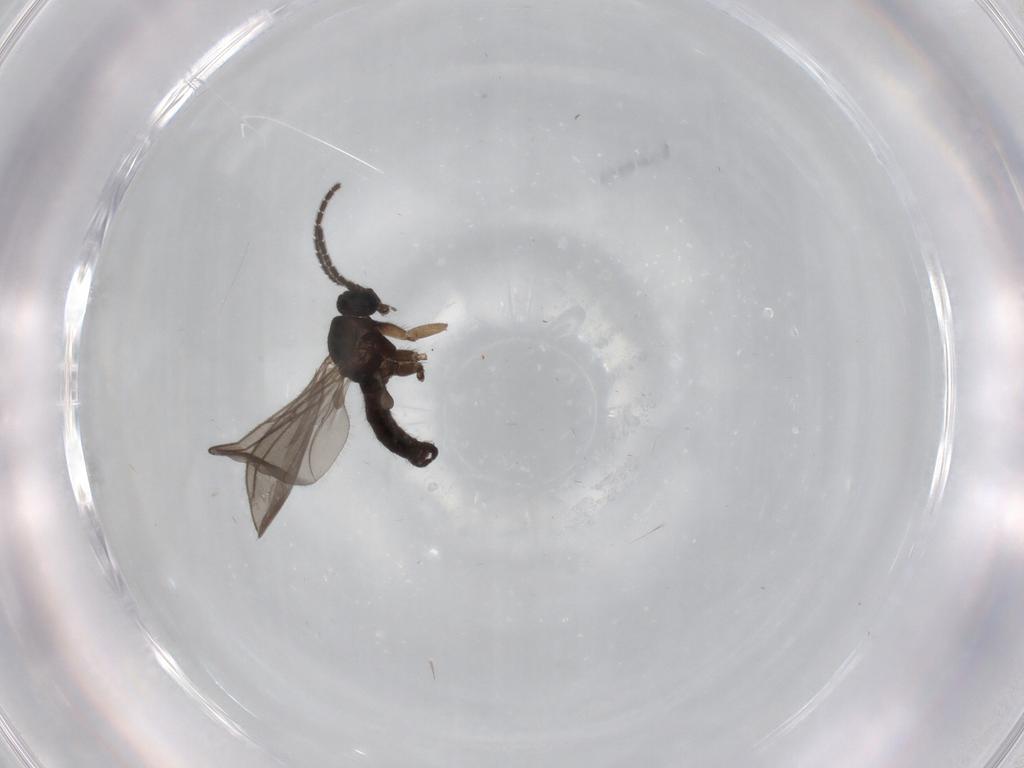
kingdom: Animalia
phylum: Arthropoda
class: Insecta
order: Diptera
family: Sciaridae
